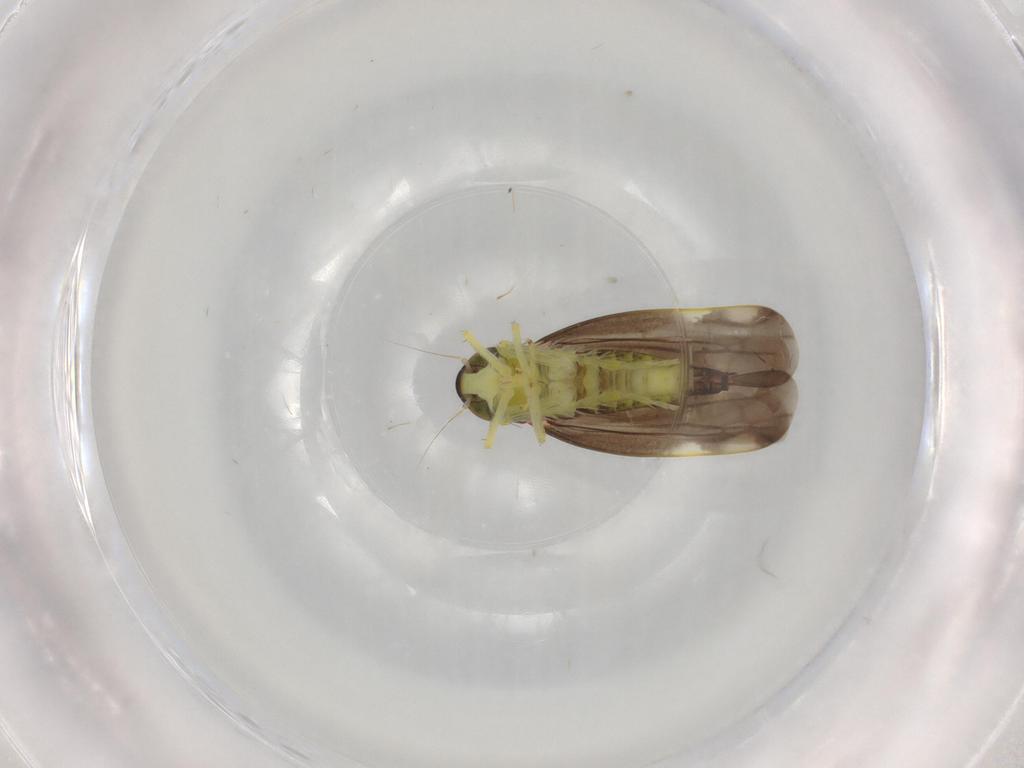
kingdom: Animalia
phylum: Arthropoda
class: Insecta
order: Hemiptera
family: Cicadellidae
